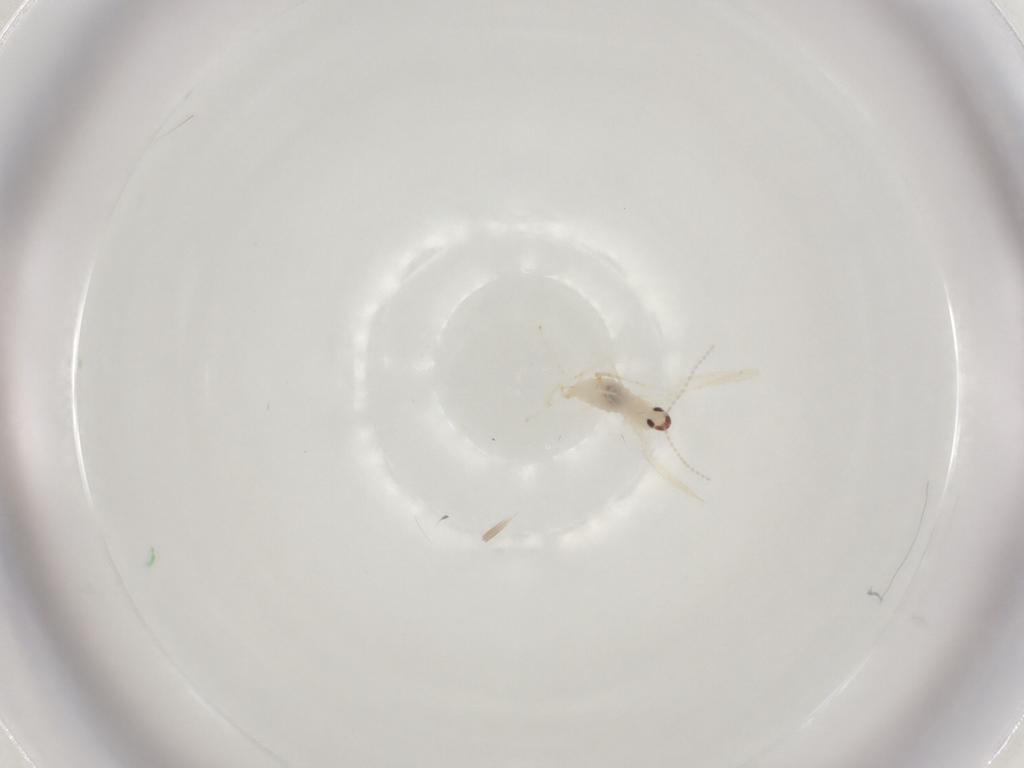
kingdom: Animalia
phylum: Arthropoda
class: Insecta
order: Diptera
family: Cecidomyiidae
